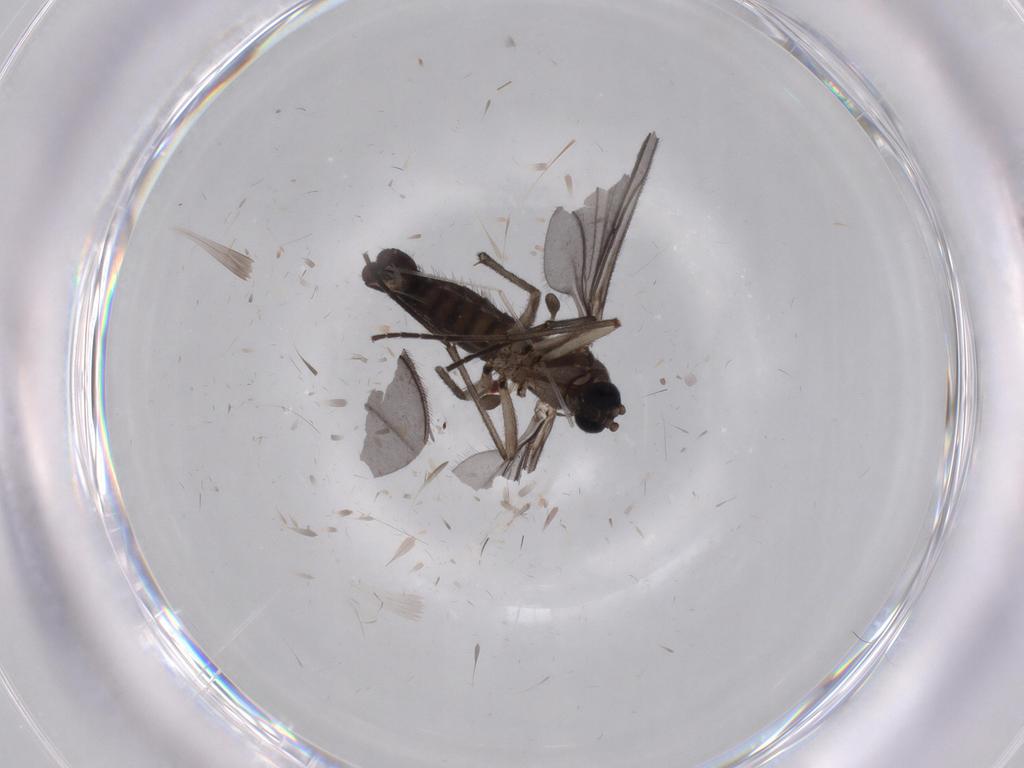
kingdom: Animalia
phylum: Arthropoda
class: Insecta
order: Diptera
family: Sciaridae
